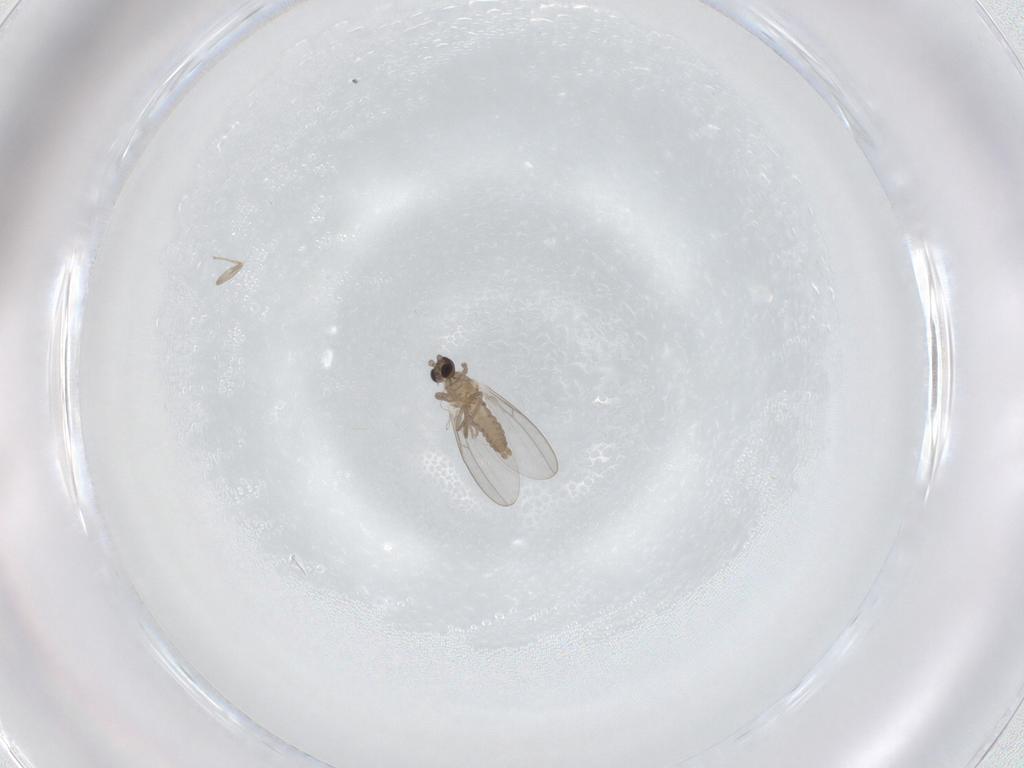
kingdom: Animalia
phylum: Arthropoda
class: Insecta
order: Diptera
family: Cecidomyiidae
